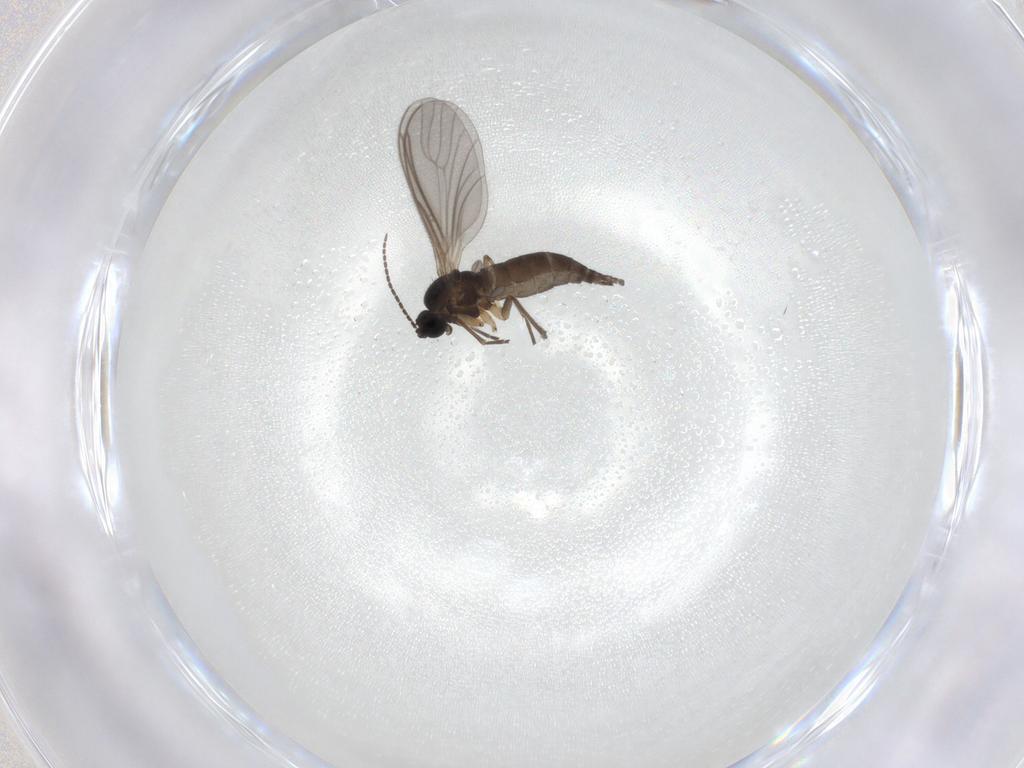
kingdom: Animalia
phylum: Arthropoda
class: Insecta
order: Diptera
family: Sciaridae
